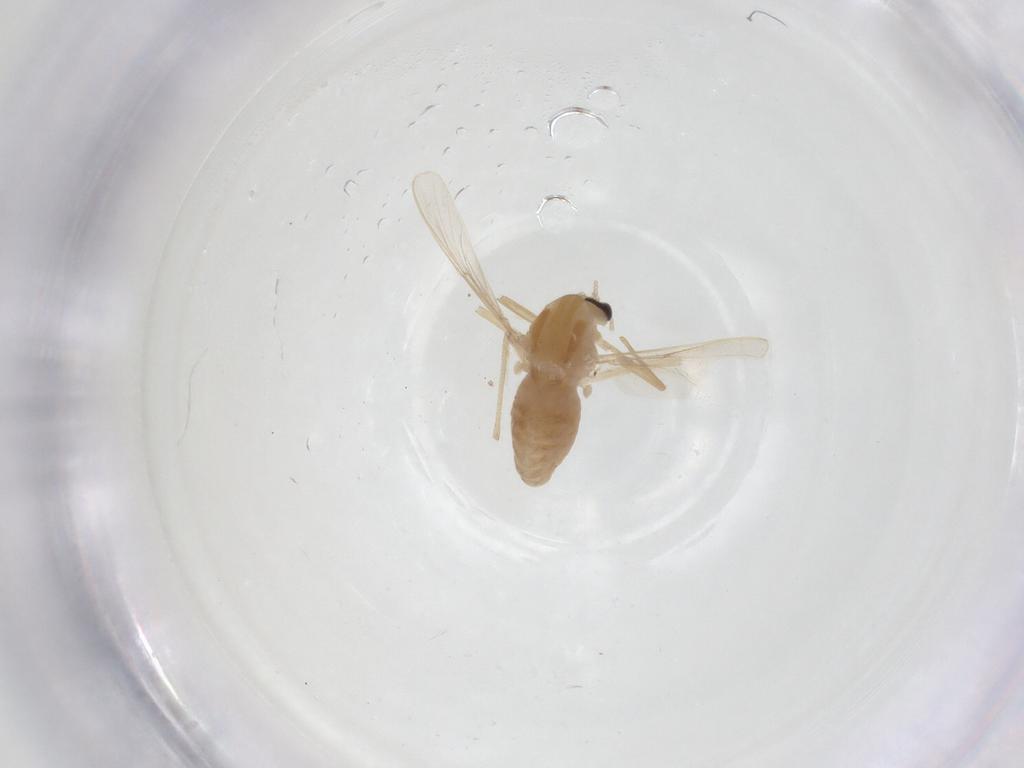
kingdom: Animalia
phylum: Arthropoda
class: Insecta
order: Diptera
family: Chironomidae
